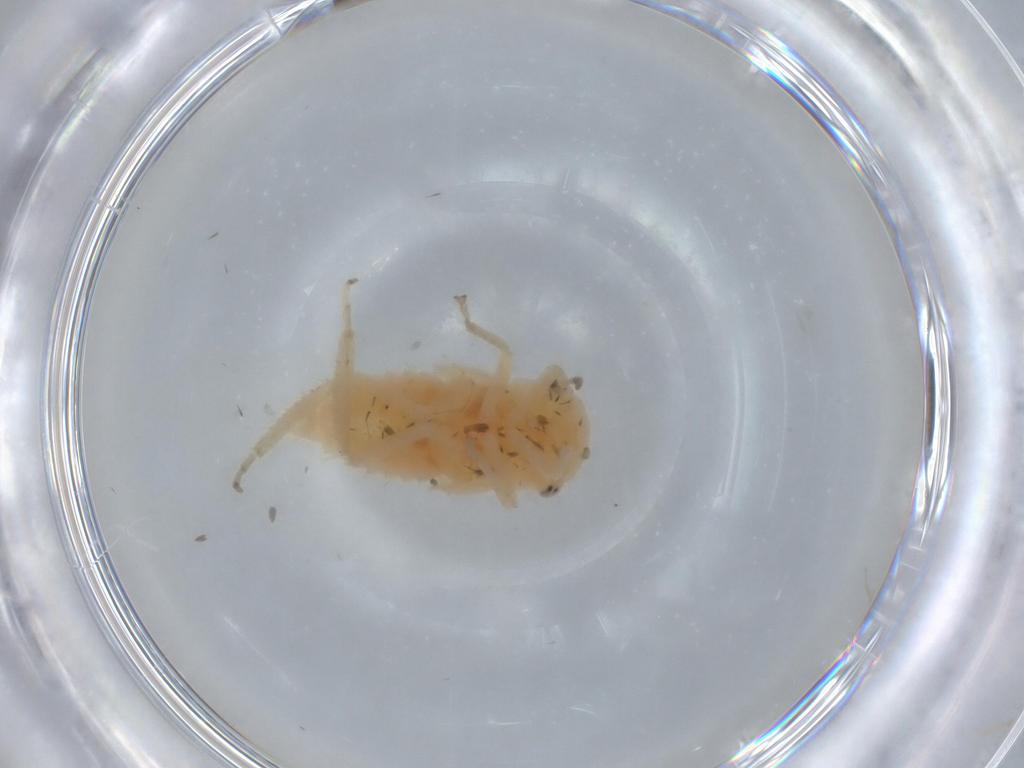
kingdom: Animalia
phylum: Arthropoda
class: Insecta
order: Hemiptera
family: Cicadellidae
